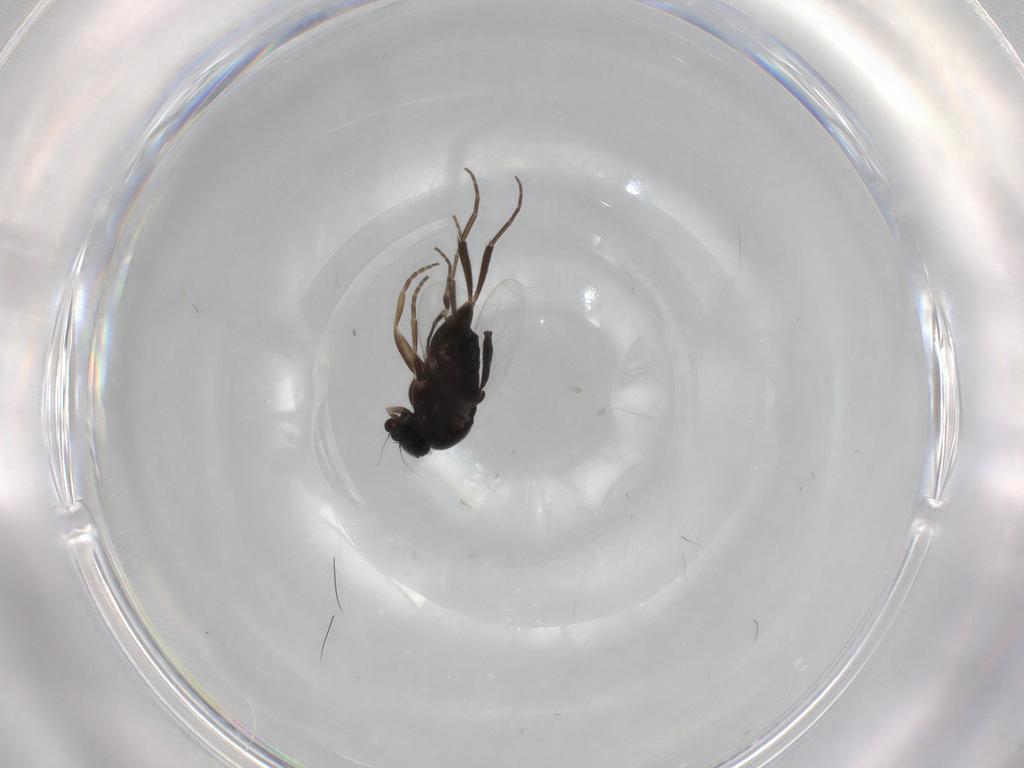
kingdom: Animalia
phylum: Arthropoda
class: Insecta
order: Diptera
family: Phoridae
